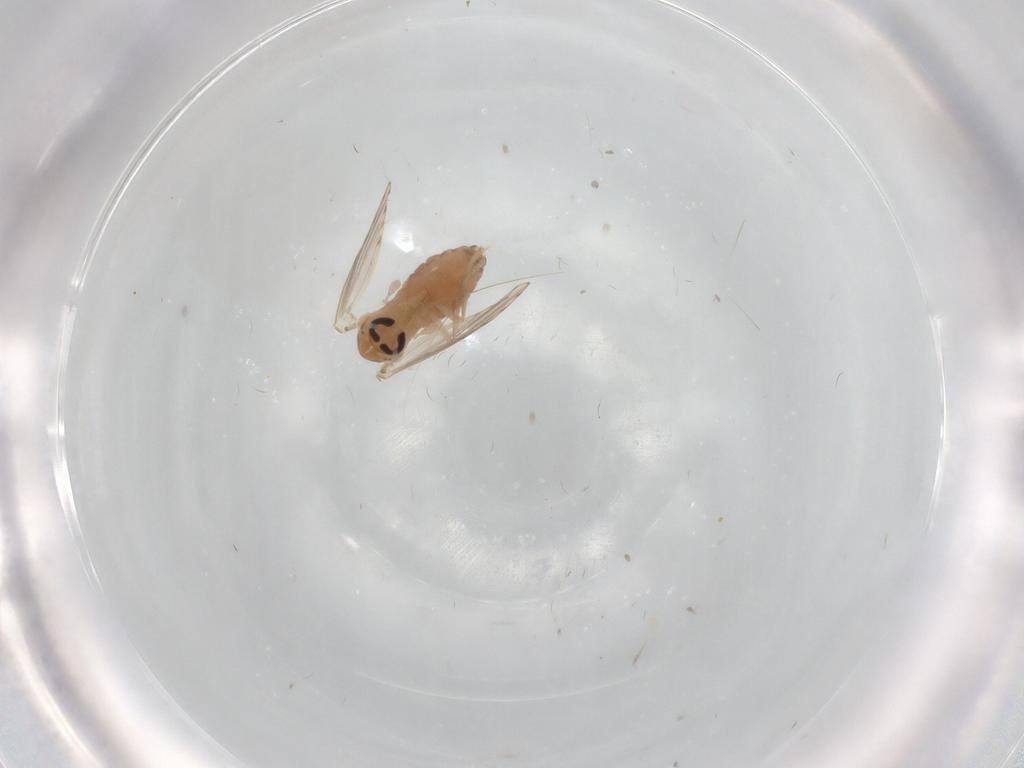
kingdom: Animalia
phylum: Arthropoda
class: Insecta
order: Diptera
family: Psychodidae
